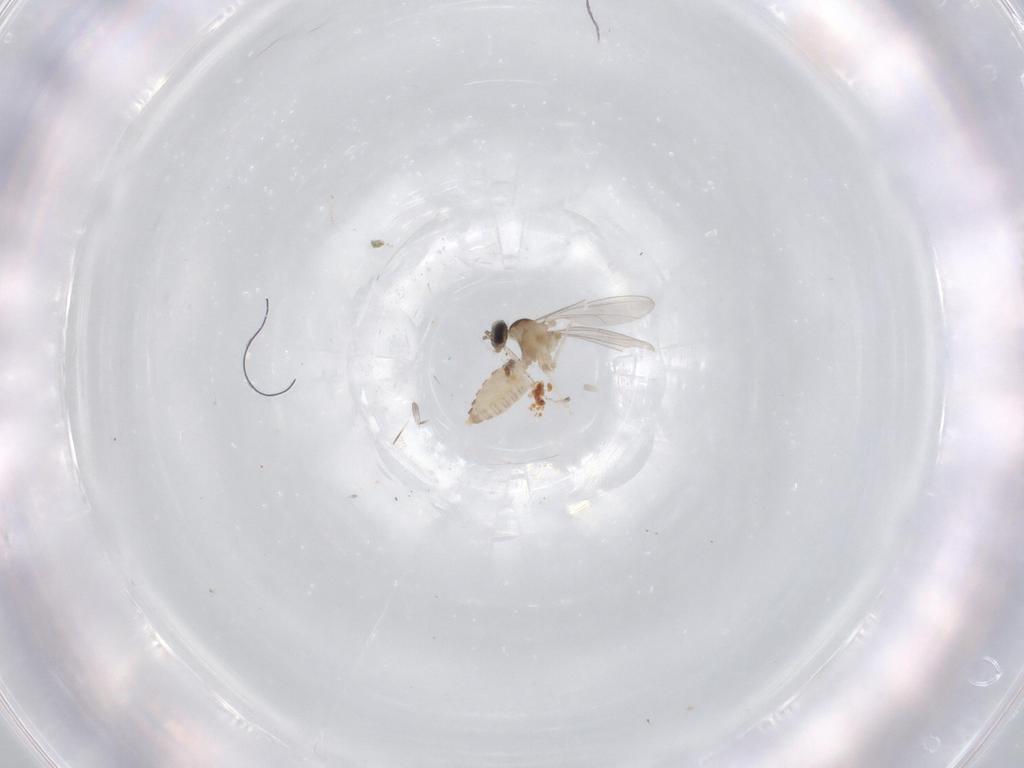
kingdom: Animalia
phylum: Arthropoda
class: Insecta
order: Diptera
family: Cecidomyiidae
